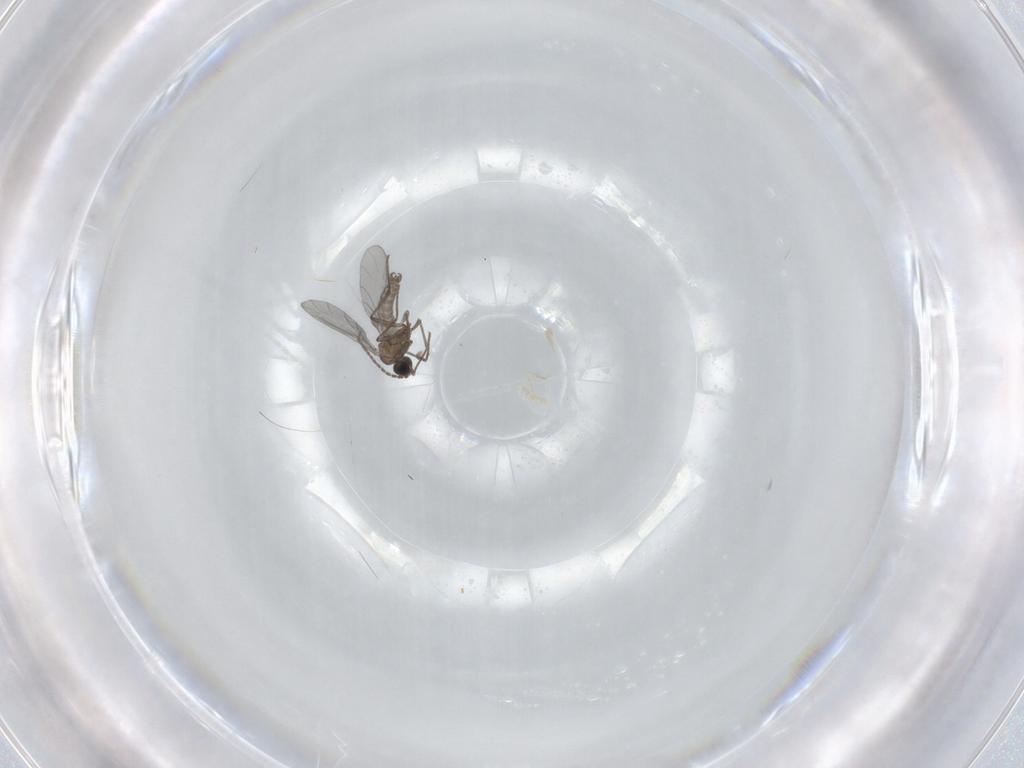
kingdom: Animalia
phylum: Arthropoda
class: Insecta
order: Diptera
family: Sciaridae
